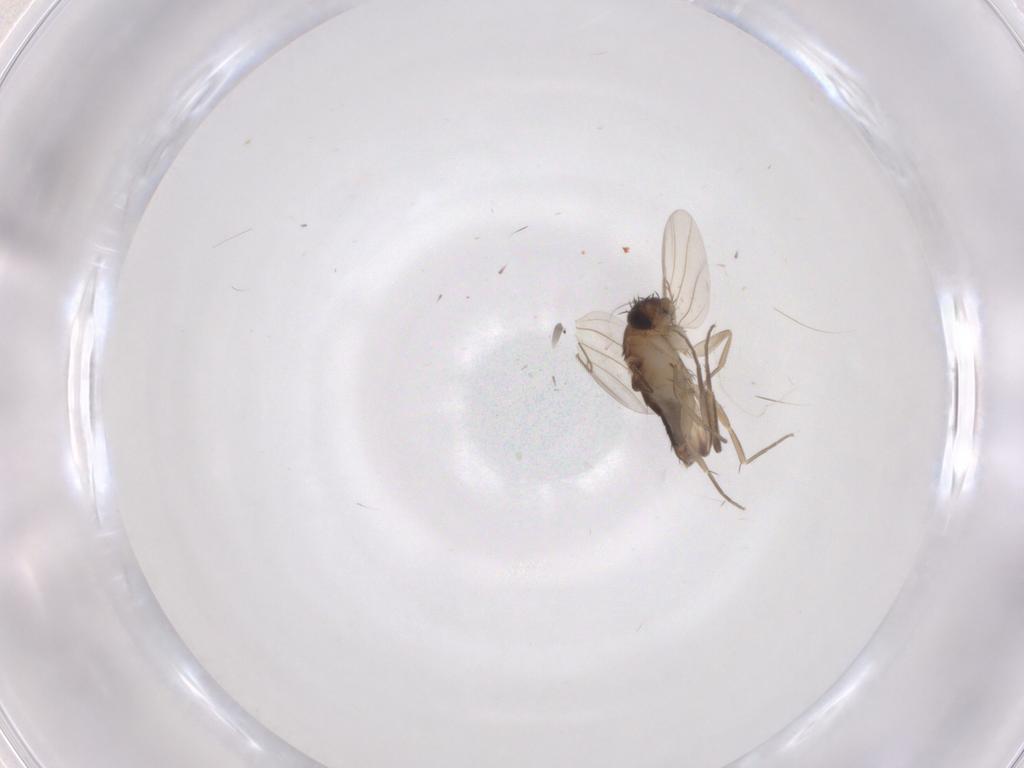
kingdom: Animalia
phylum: Arthropoda
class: Insecta
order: Diptera
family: Phoridae
